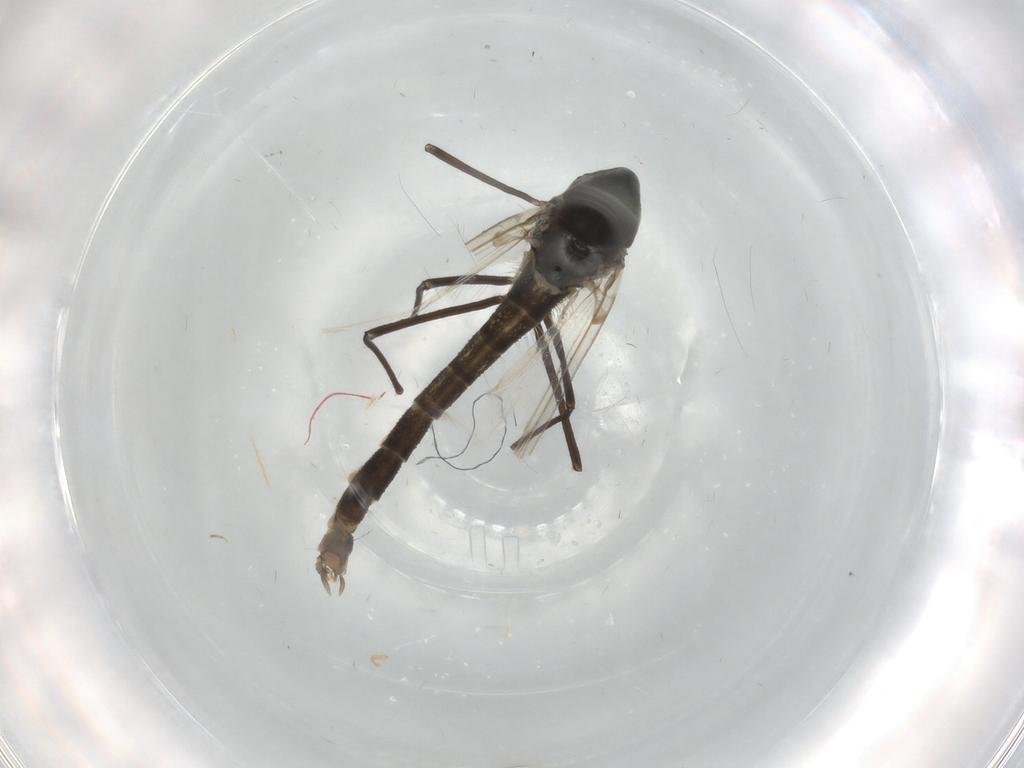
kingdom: Animalia
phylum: Arthropoda
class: Insecta
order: Diptera
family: Chironomidae
